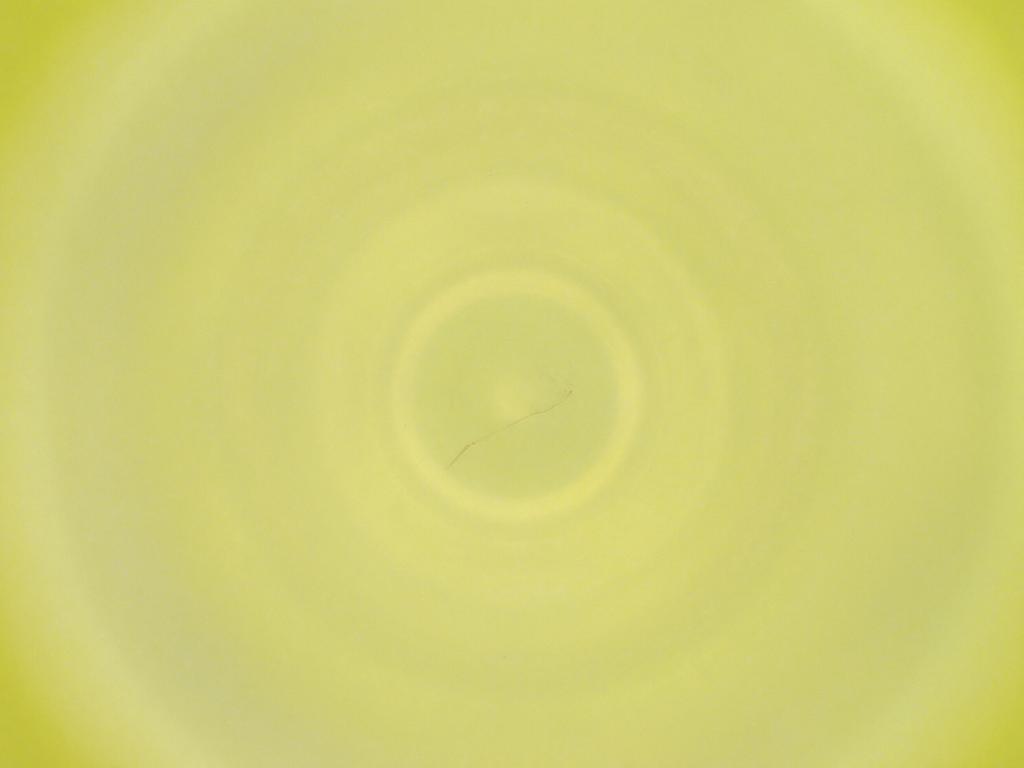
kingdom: Animalia
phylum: Arthropoda
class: Insecta
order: Diptera
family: Cecidomyiidae
